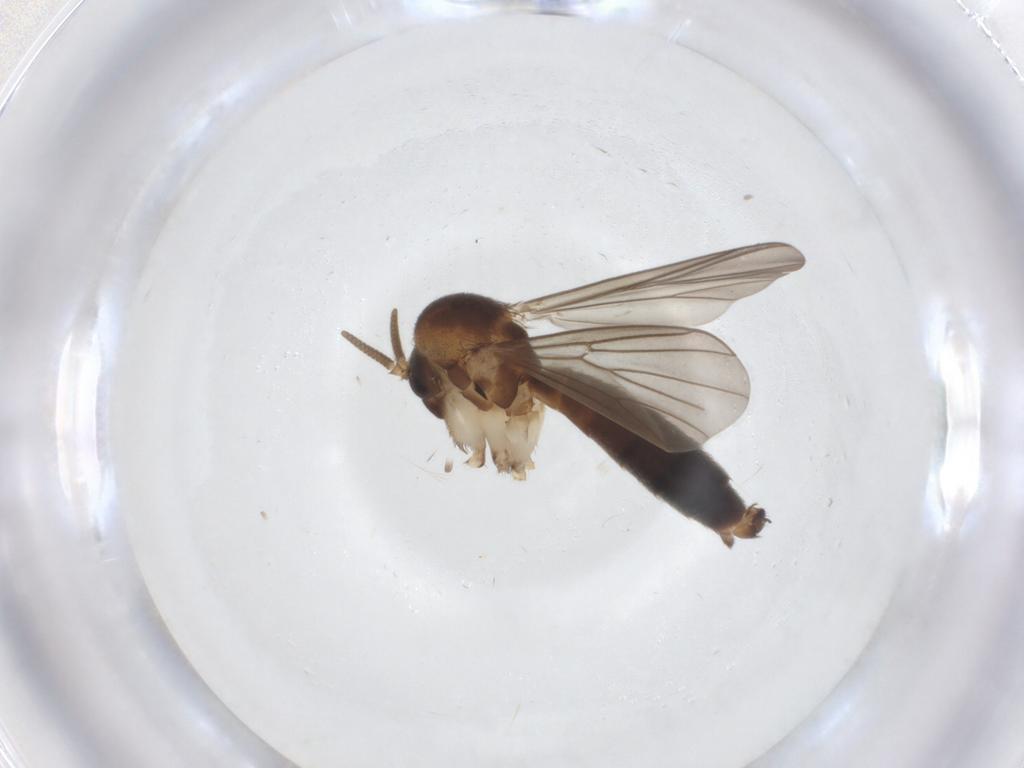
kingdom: Animalia
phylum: Arthropoda
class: Insecta
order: Diptera
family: Mycetophilidae
